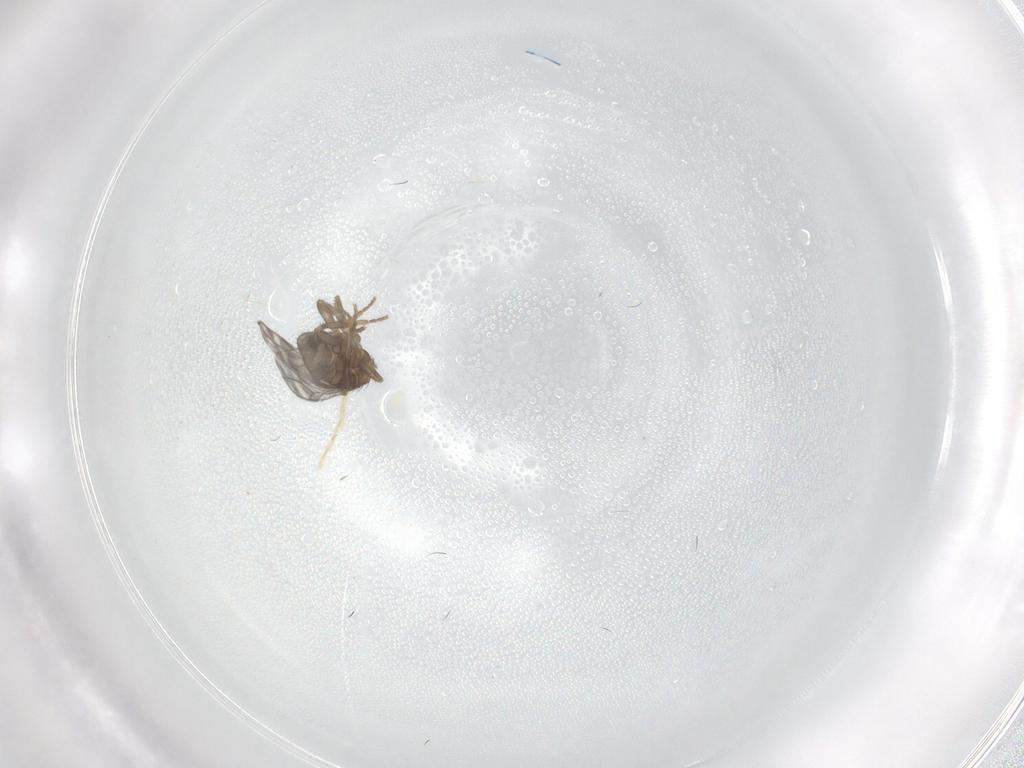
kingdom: Animalia
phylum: Arthropoda
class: Insecta
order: Diptera
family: Sphaeroceridae
